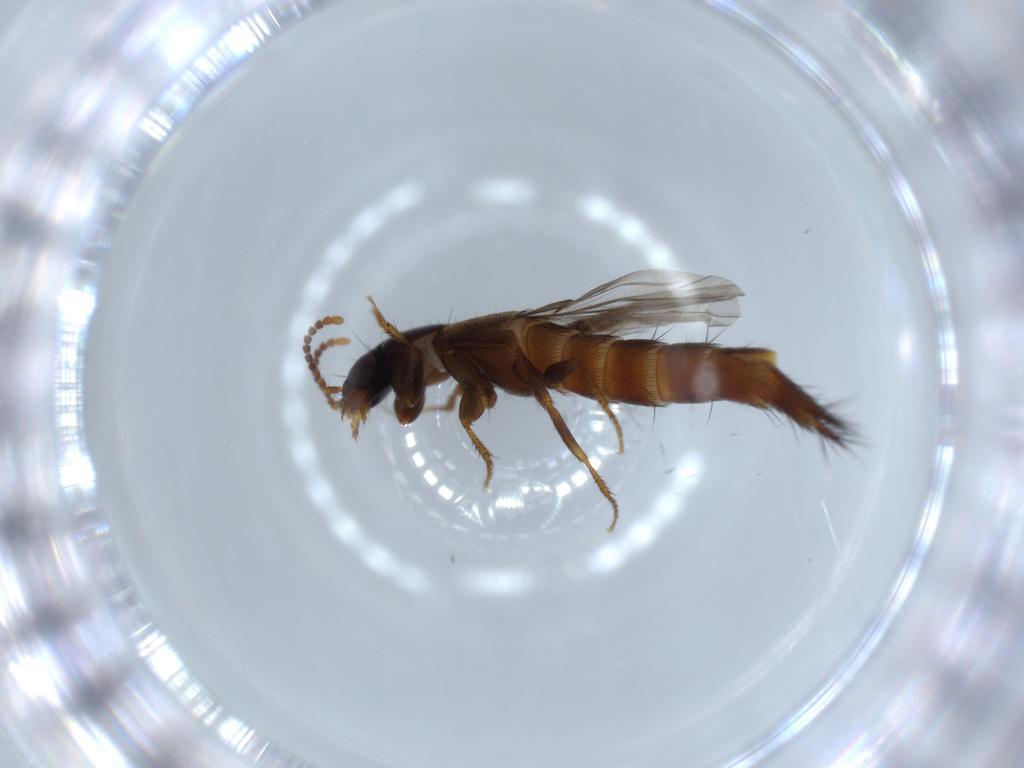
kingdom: Animalia
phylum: Arthropoda
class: Insecta
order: Coleoptera
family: Staphylinidae
